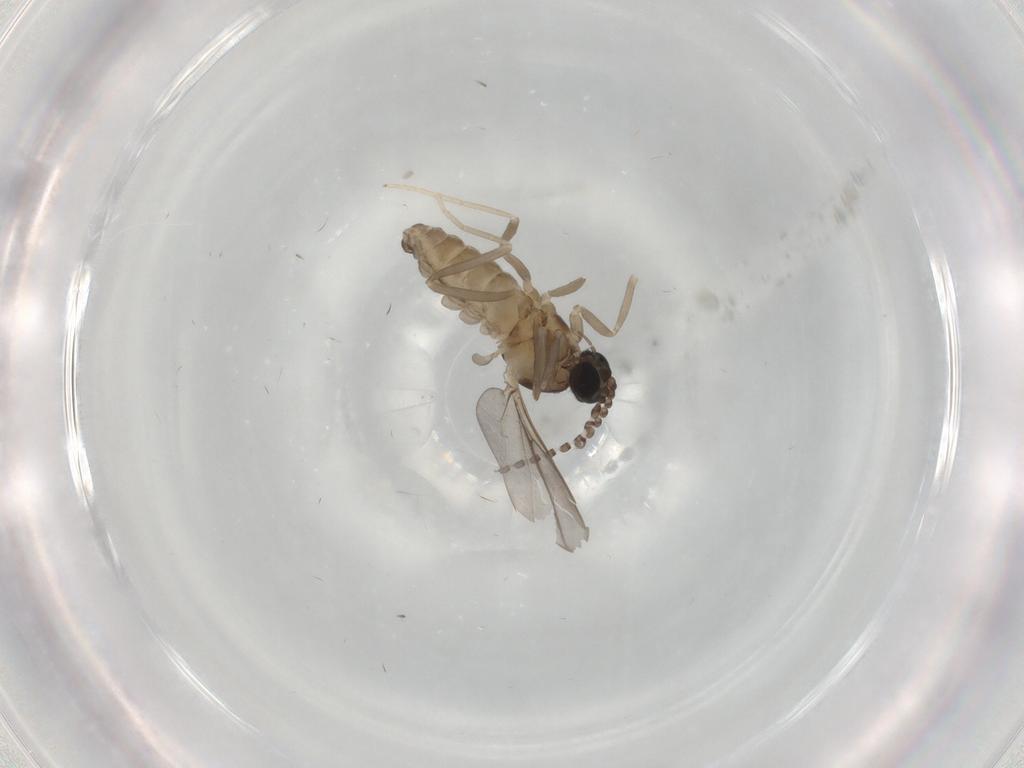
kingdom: Animalia
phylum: Arthropoda
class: Insecta
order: Diptera
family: Cecidomyiidae
